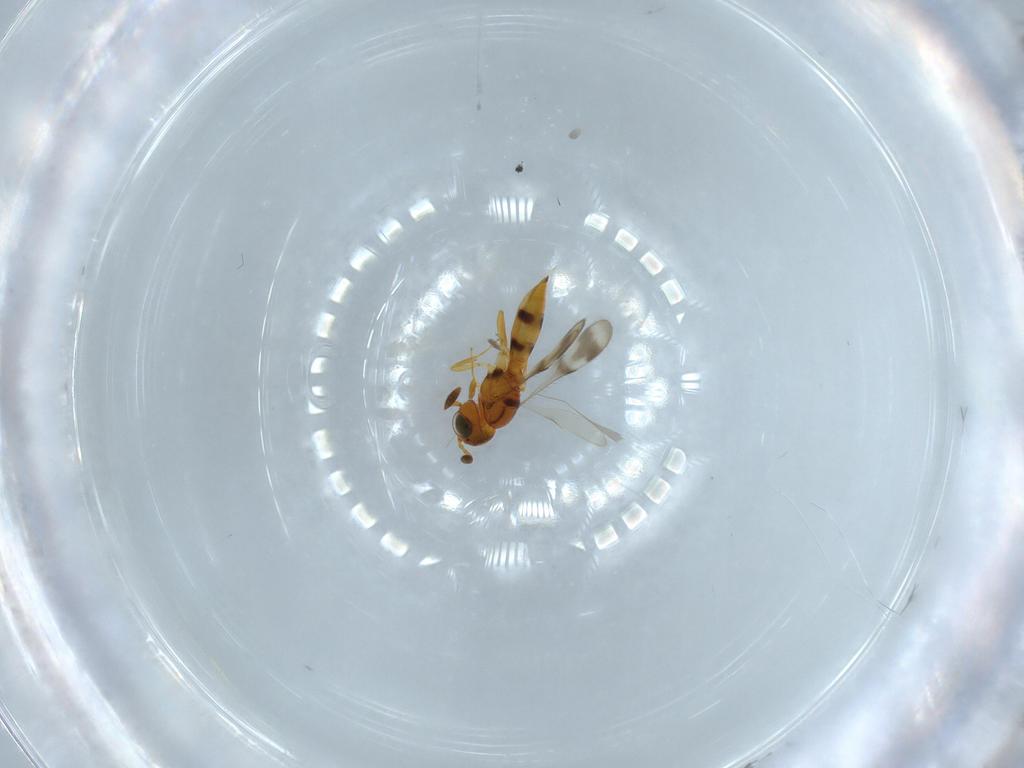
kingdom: Animalia
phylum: Arthropoda
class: Insecta
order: Hymenoptera
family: Scelionidae
